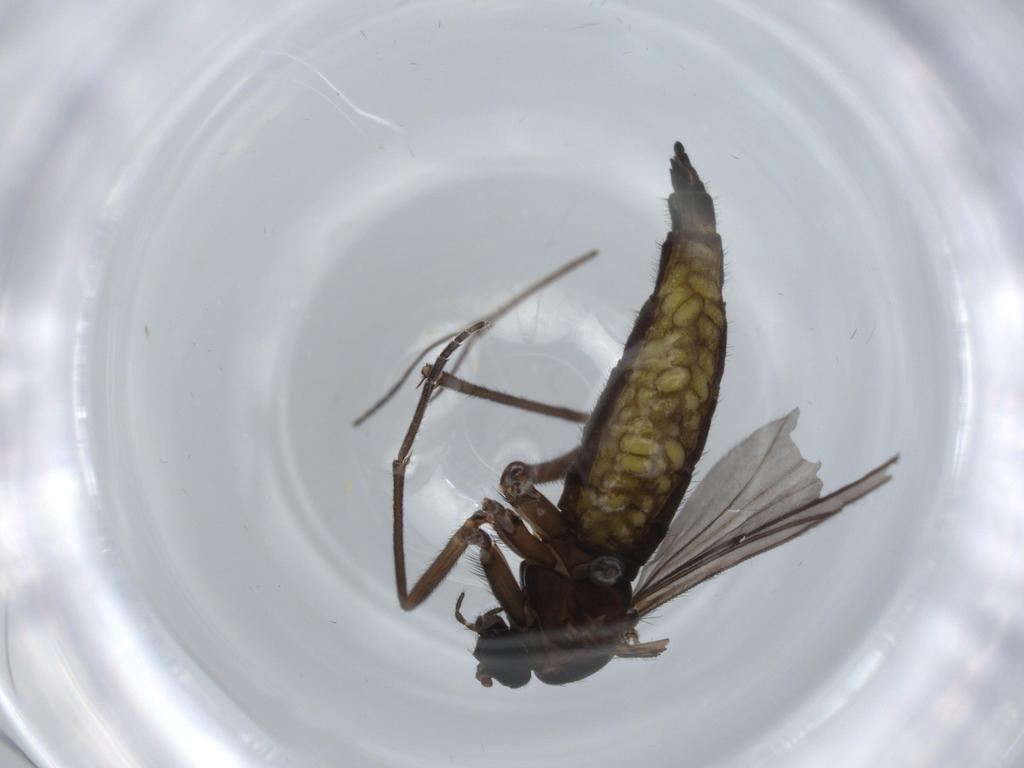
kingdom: Animalia
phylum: Arthropoda
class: Insecta
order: Diptera
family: Sciaridae
